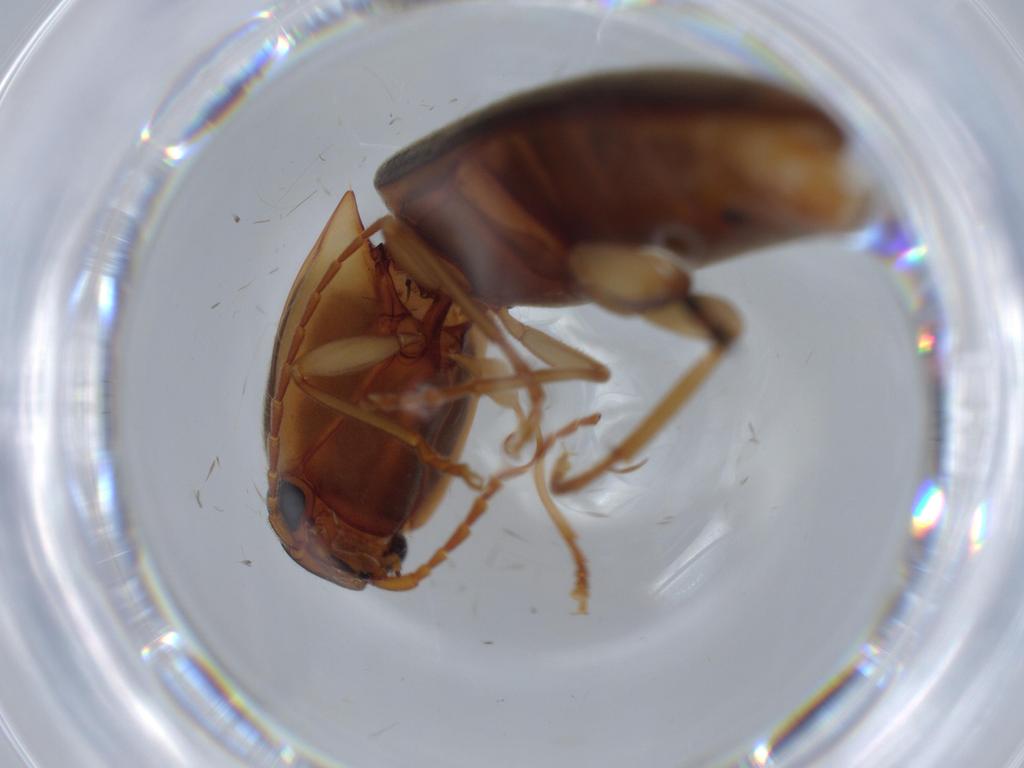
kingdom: Animalia
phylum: Arthropoda
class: Insecta
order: Coleoptera
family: Elateridae
